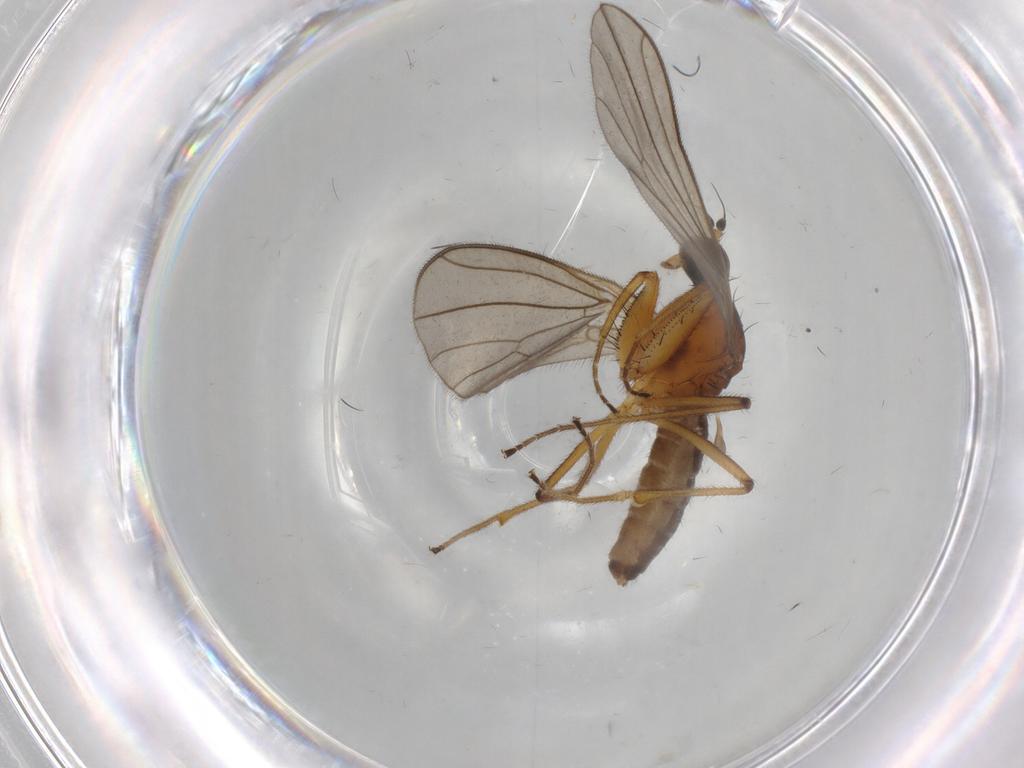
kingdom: Animalia
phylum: Arthropoda
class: Insecta
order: Diptera
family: Empididae
